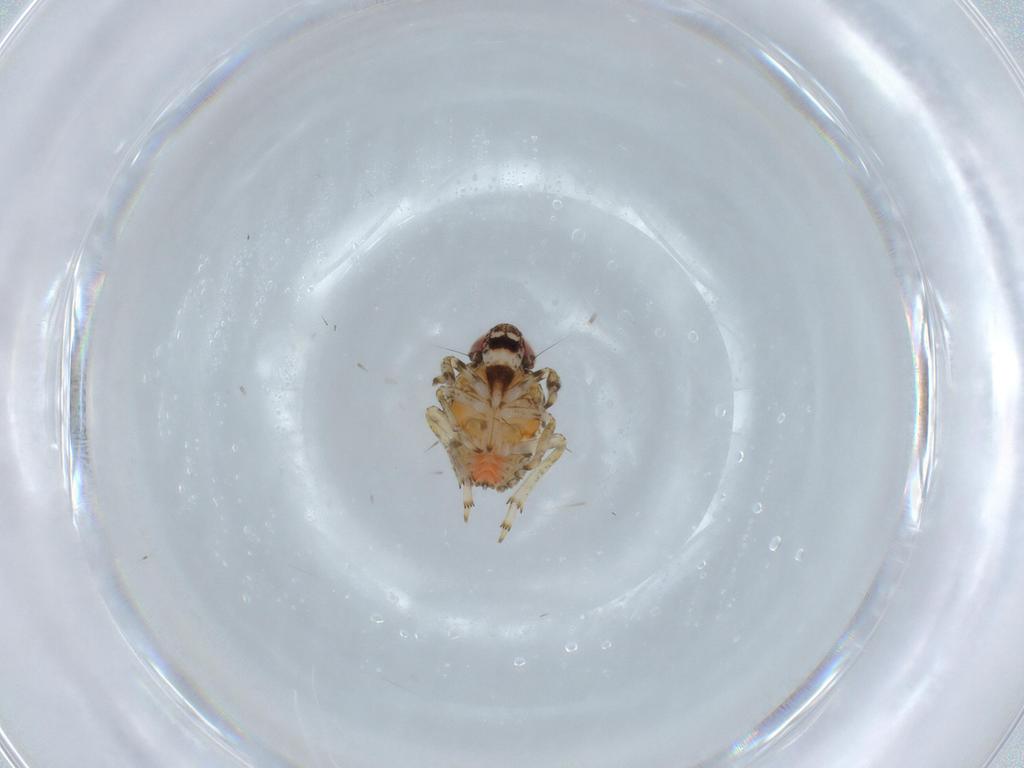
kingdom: Animalia
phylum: Arthropoda
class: Insecta
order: Hemiptera
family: Issidae
